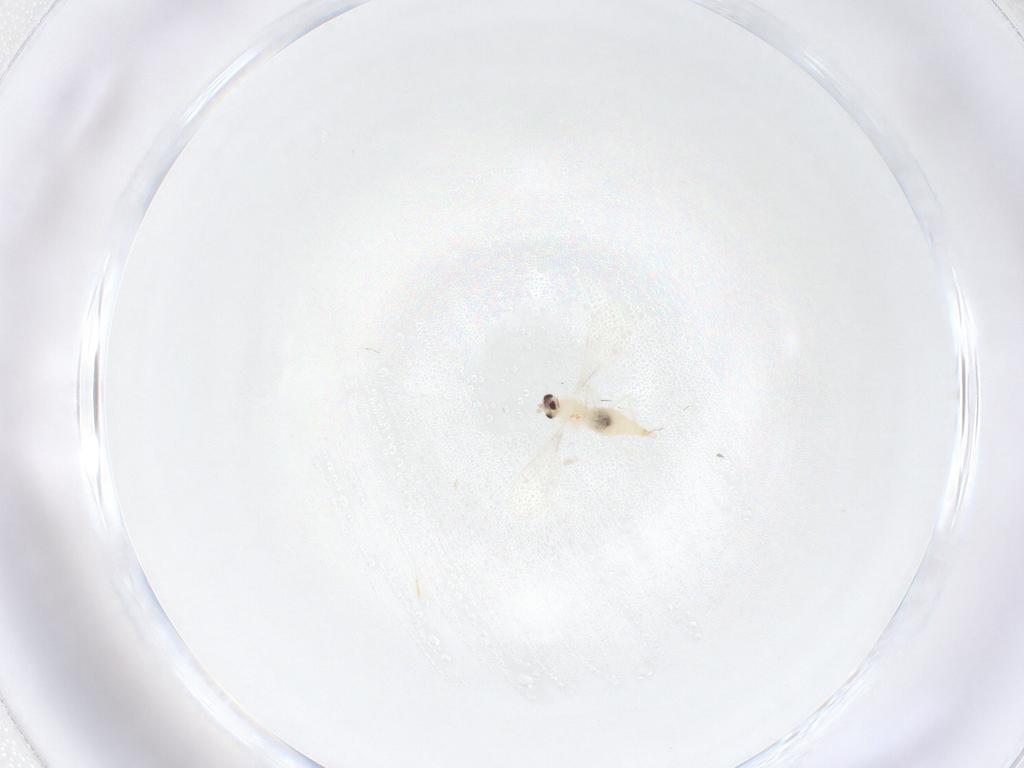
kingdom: Animalia
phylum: Arthropoda
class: Insecta
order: Diptera
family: Cecidomyiidae
